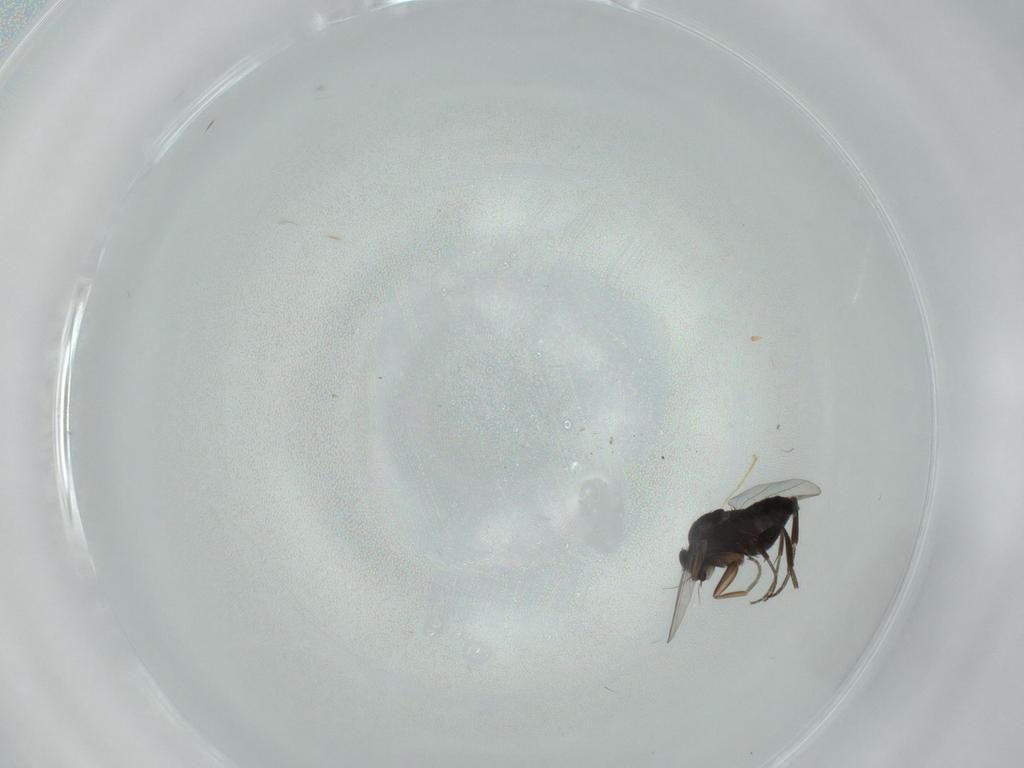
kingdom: Animalia
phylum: Arthropoda
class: Insecta
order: Diptera
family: Phoridae
